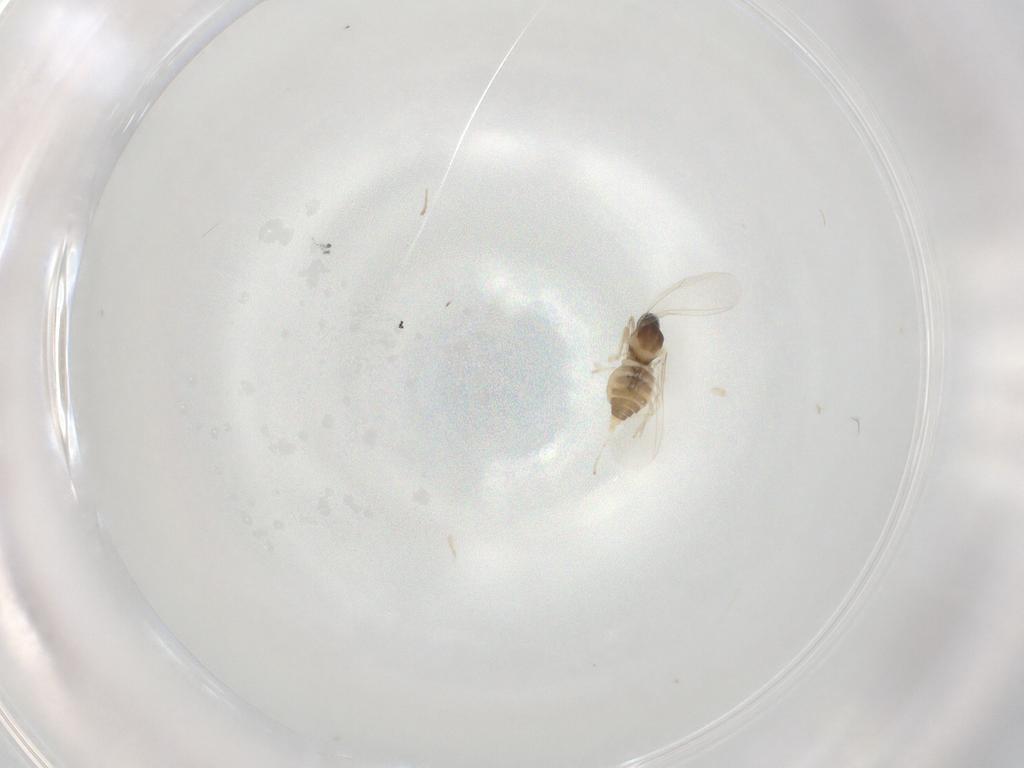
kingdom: Animalia
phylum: Arthropoda
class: Insecta
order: Diptera
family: Cecidomyiidae
